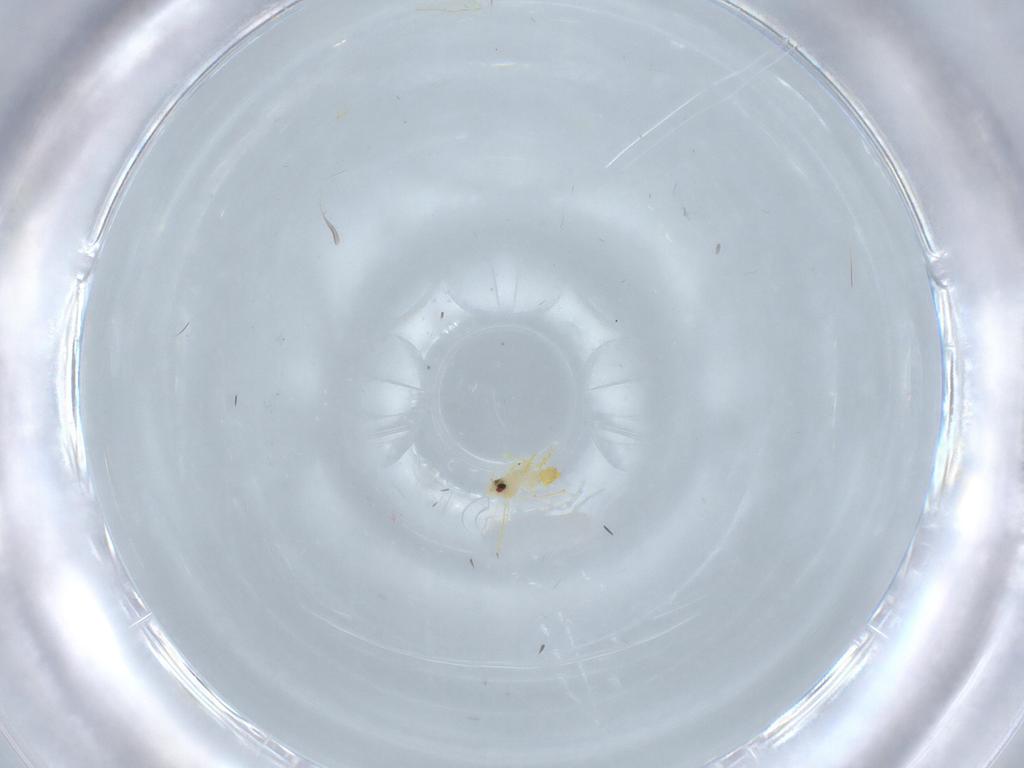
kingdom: Animalia
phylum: Arthropoda
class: Insecta
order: Hemiptera
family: Aleyrodidae
